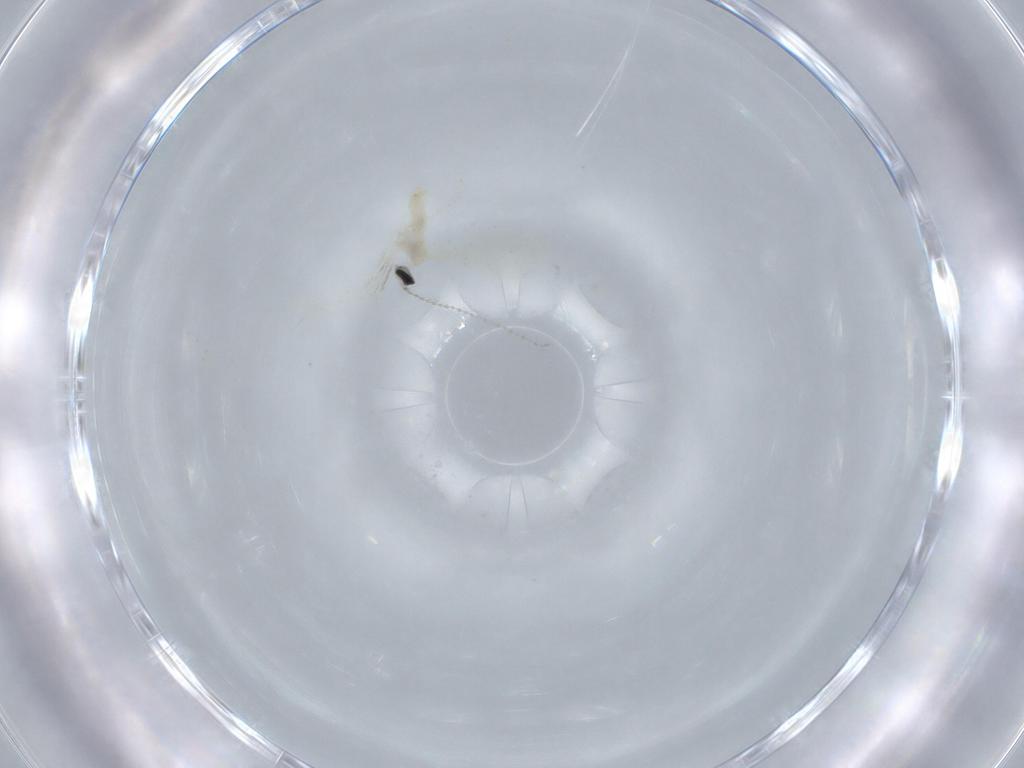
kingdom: Animalia
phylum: Arthropoda
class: Insecta
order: Diptera
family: Cecidomyiidae
